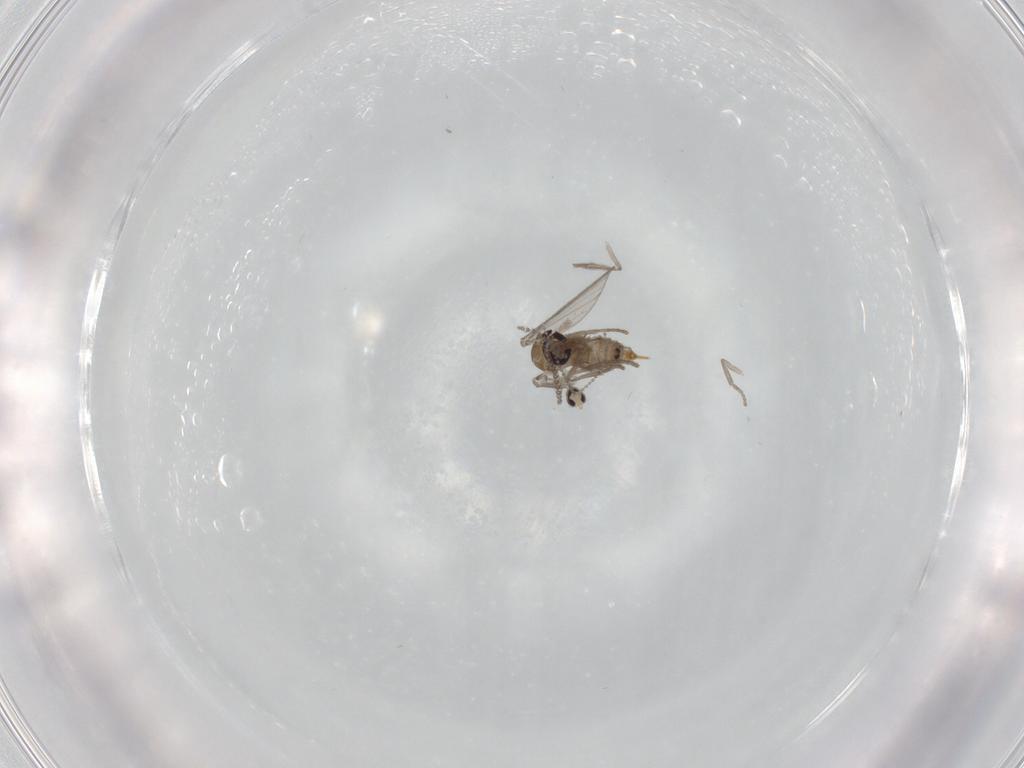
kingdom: Animalia
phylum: Arthropoda
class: Insecta
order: Diptera
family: Psychodidae
